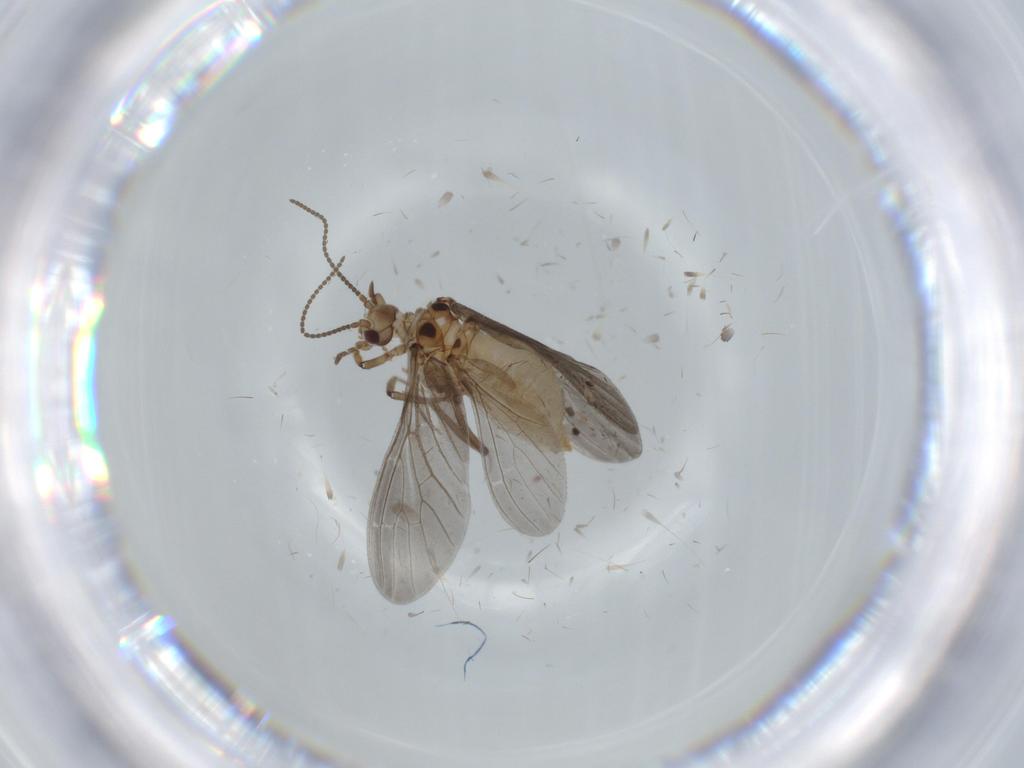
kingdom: Animalia
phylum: Arthropoda
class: Insecta
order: Neuroptera
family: Coniopterygidae
